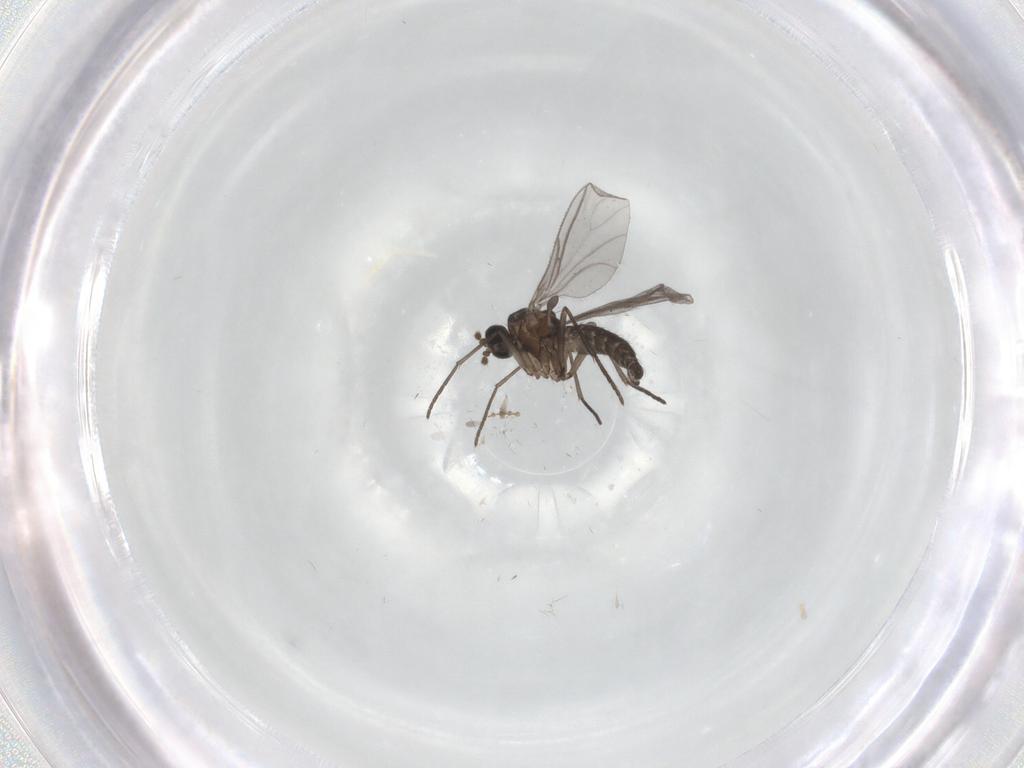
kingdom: Animalia
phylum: Arthropoda
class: Insecta
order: Diptera
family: Cecidomyiidae
